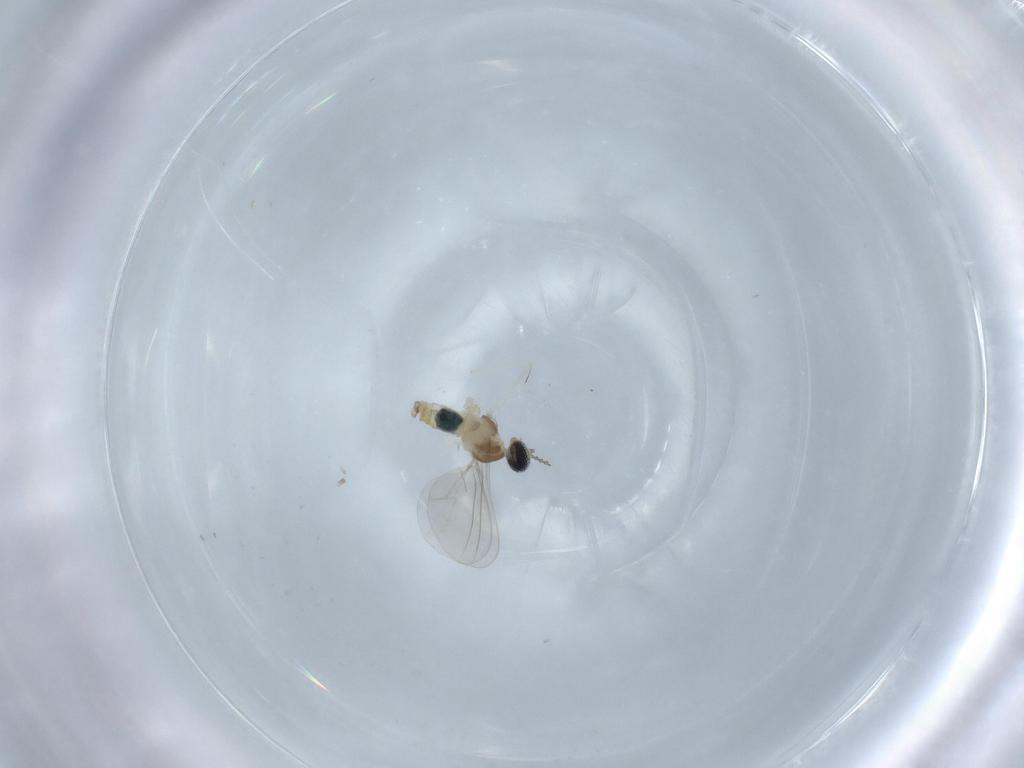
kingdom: Animalia
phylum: Arthropoda
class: Insecta
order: Diptera
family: Cecidomyiidae
